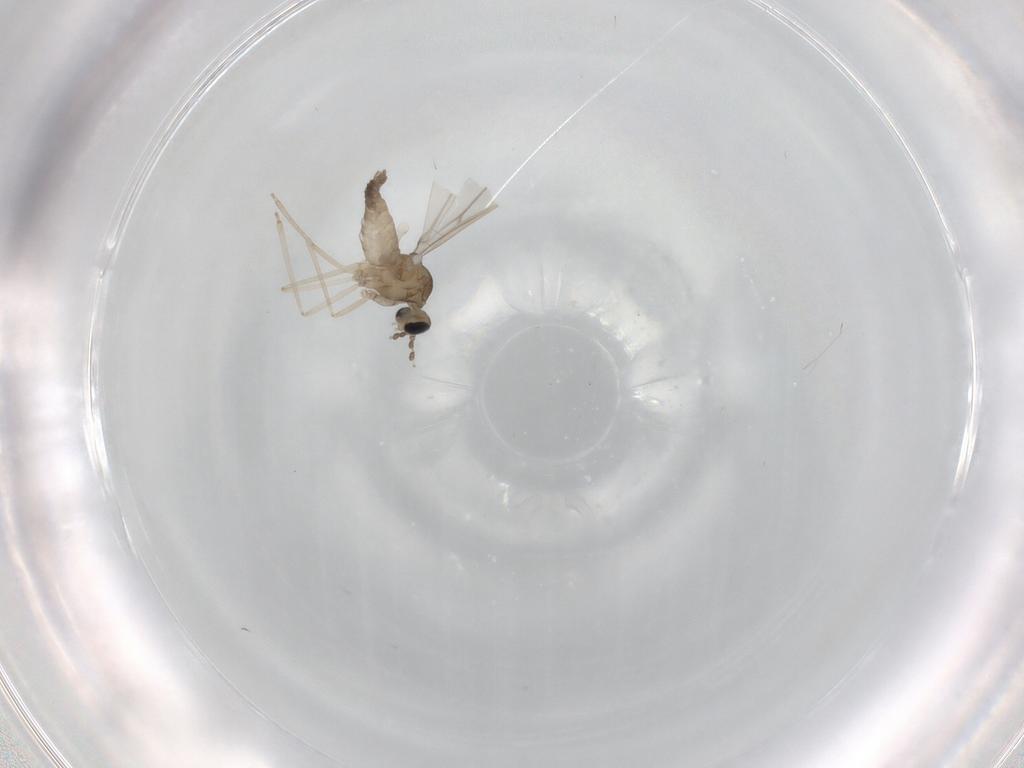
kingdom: Animalia
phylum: Arthropoda
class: Insecta
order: Diptera
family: Cecidomyiidae
